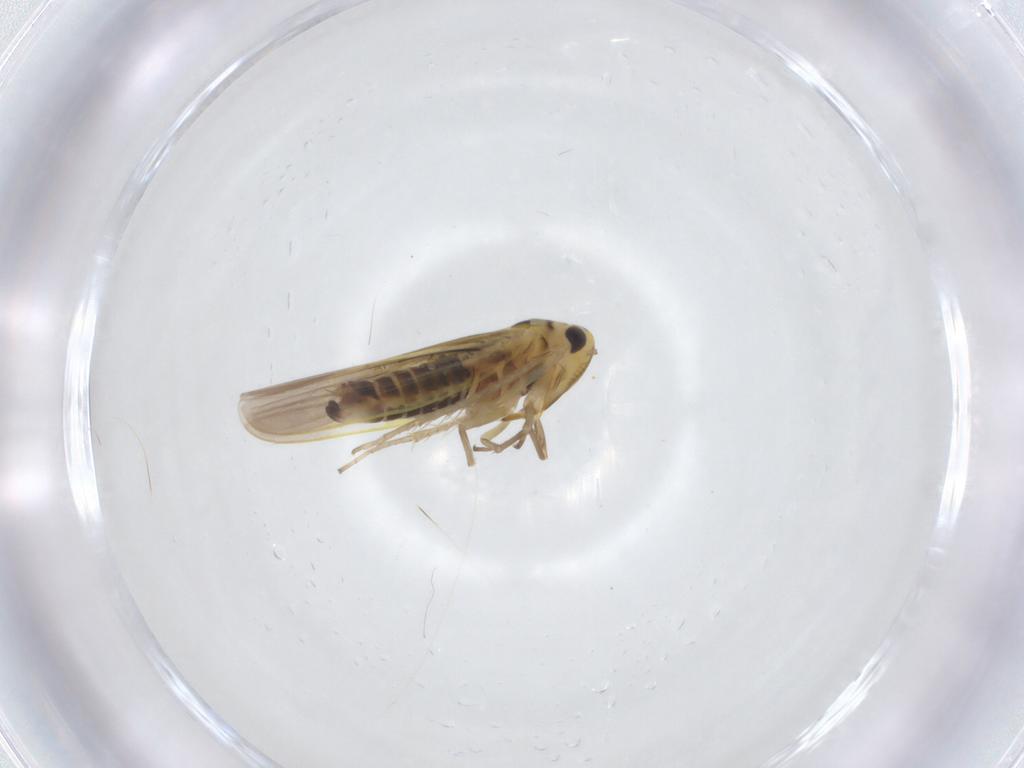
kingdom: Animalia
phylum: Arthropoda
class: Insecta
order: Hemiptera
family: Cicadellidae
